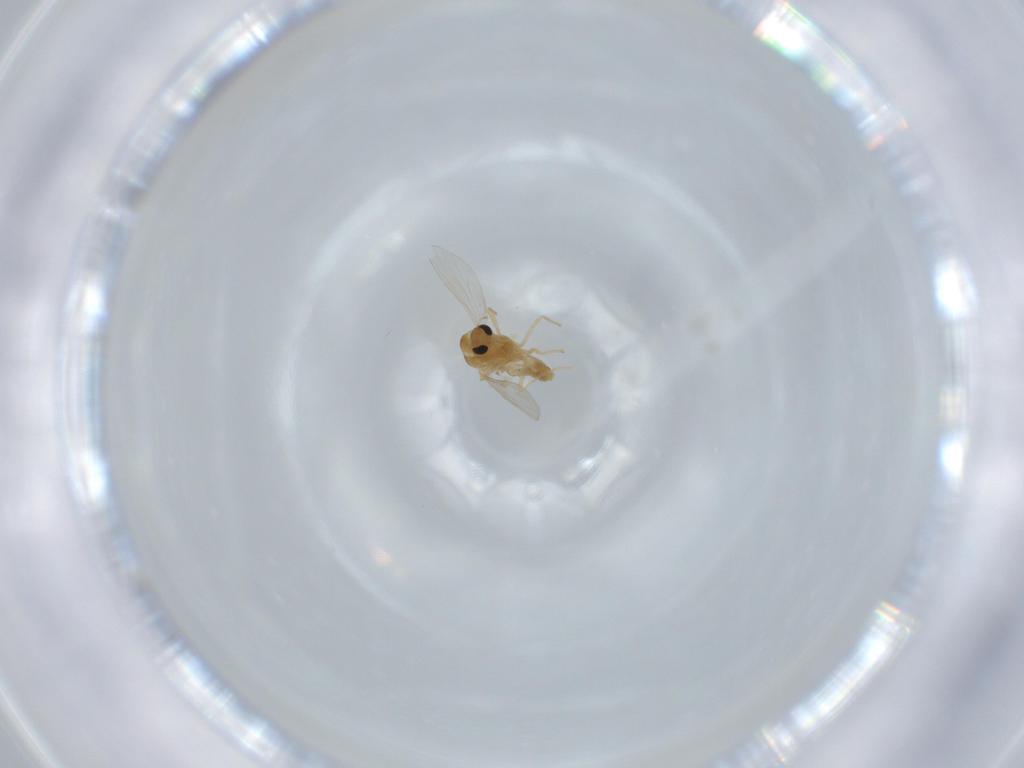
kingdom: Animalia
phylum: Arthropoda
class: Insecta
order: Diptera
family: Chironomidae
